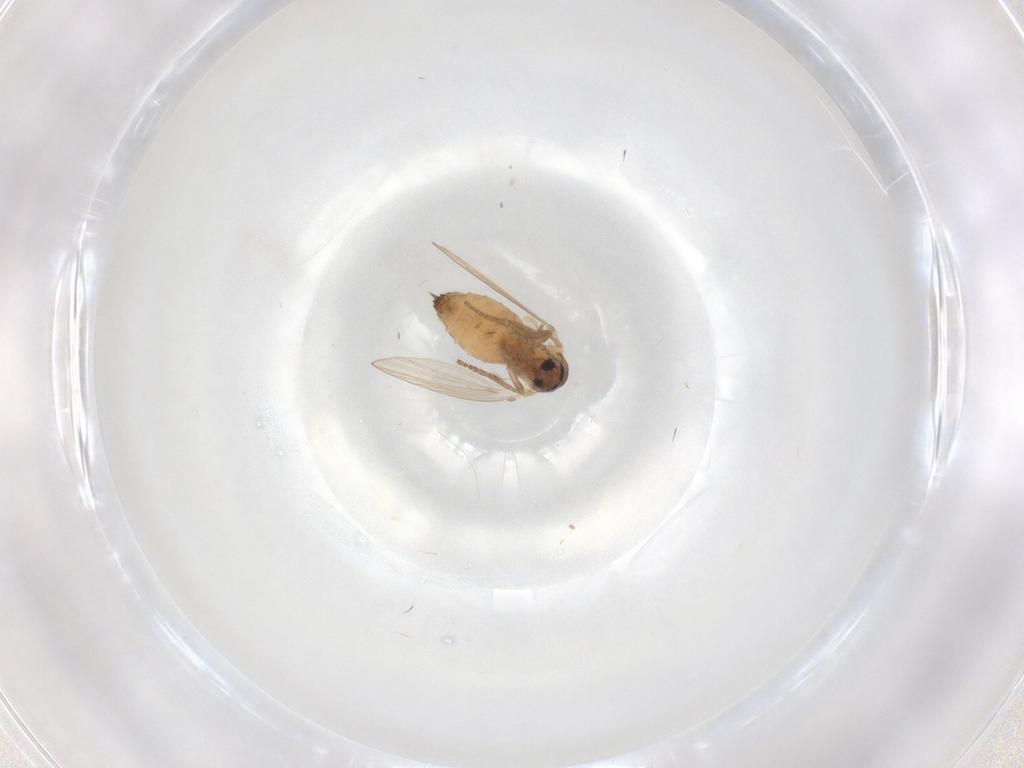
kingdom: Animalia
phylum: Arthropoda
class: Insecta
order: Diptera
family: Psychodidae
